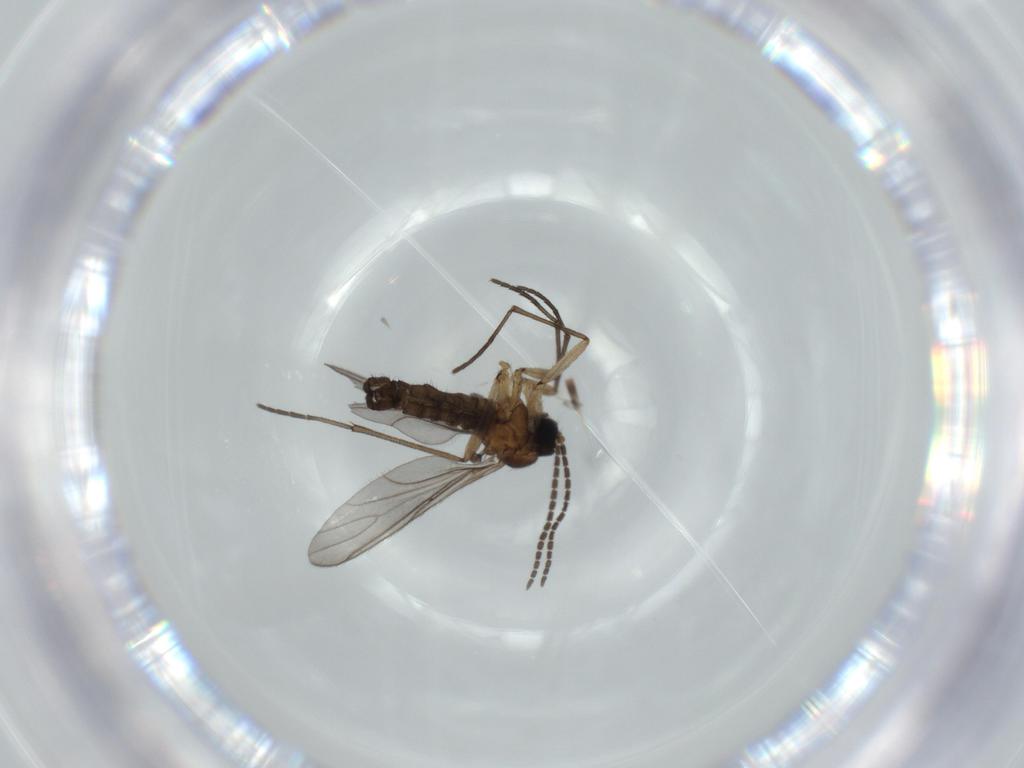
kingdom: Animalia
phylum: Arthropoda
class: Insecta
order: Diptera
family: Sciaridae
